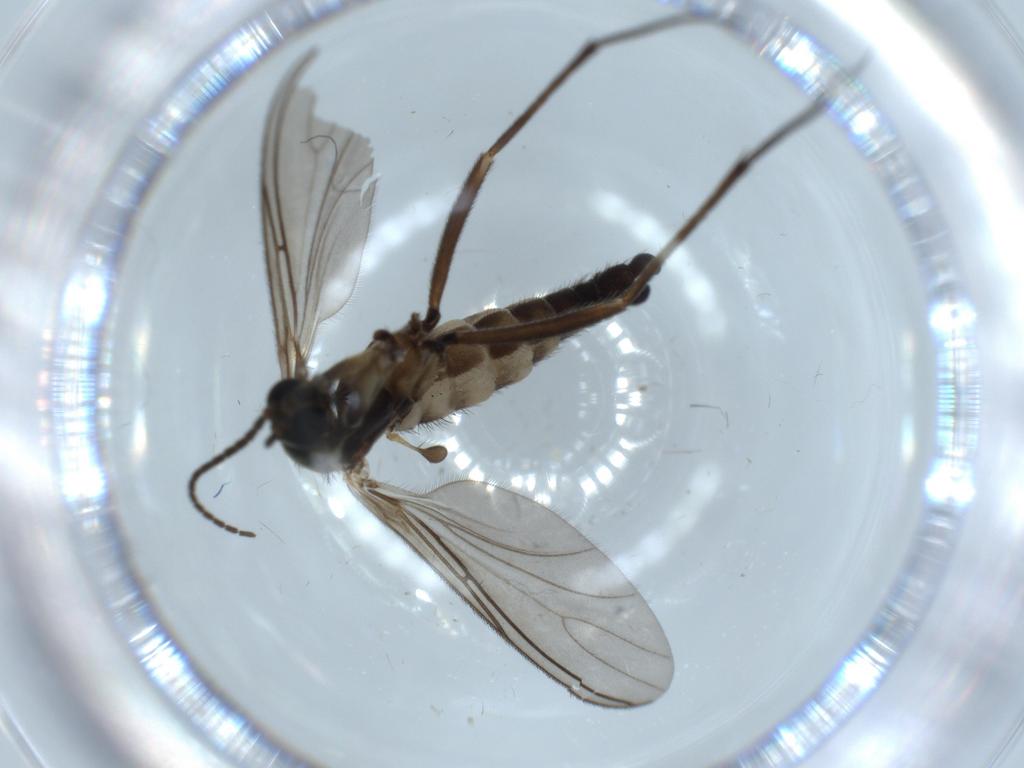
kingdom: Animalia
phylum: Arthropoda
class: Insecta
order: Diptera
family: Sciaridae
